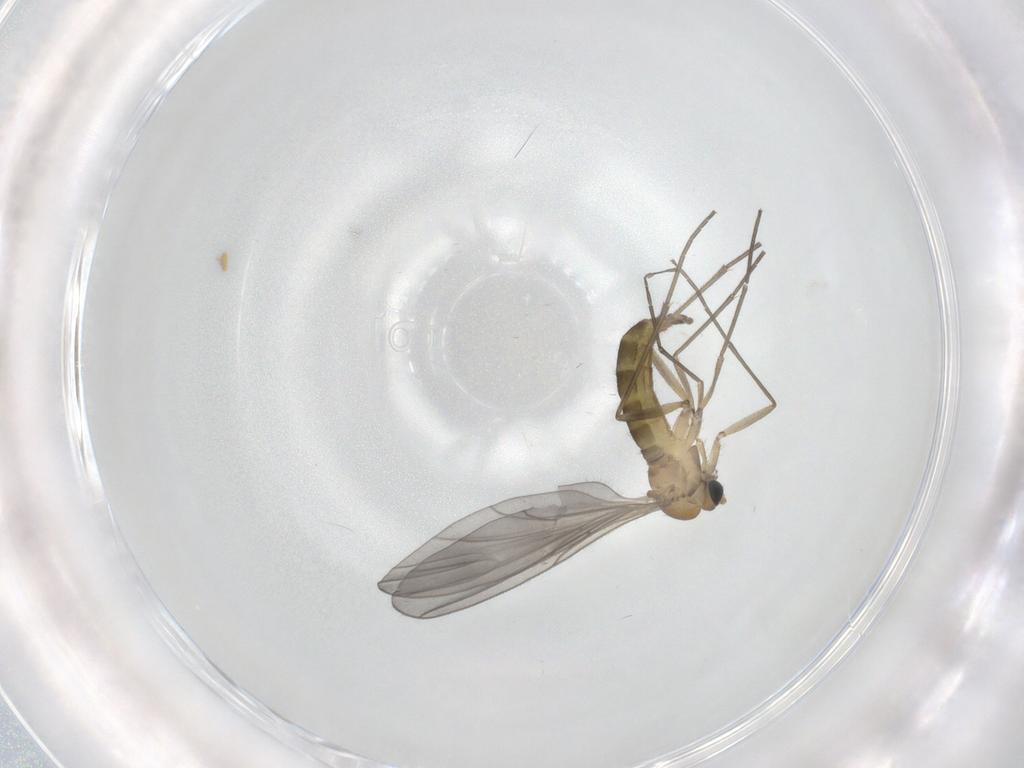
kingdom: Animalia
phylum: Arthropoda
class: Insecta
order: Diptera
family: Sciaridae
